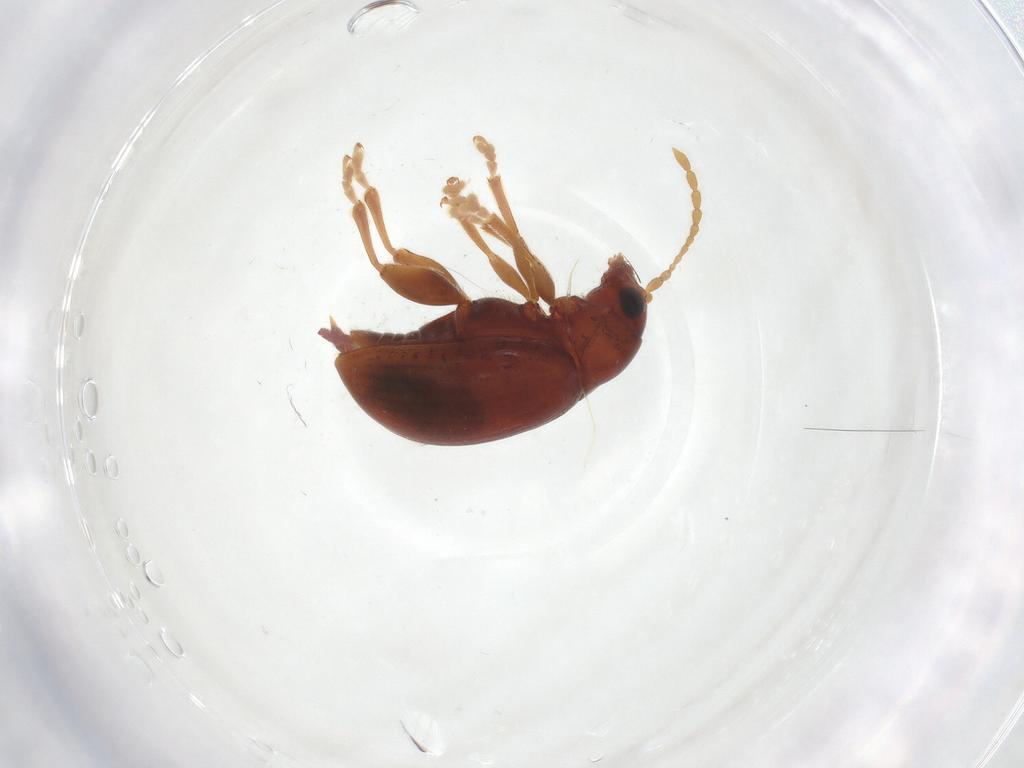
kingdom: Animalia
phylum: Arthropoda
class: Insecta
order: Coleoptera
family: Chrysomelidae
